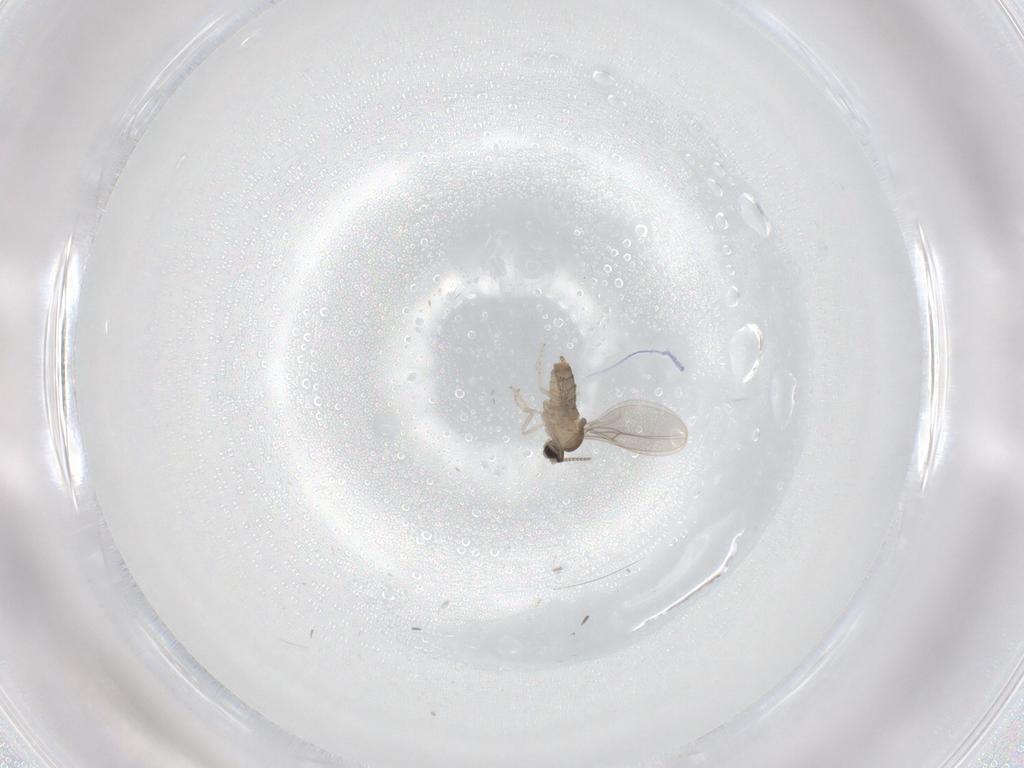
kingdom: Animalia
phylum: Arthropoda
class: Insecta
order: Diptera
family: Cecidomyiidae
